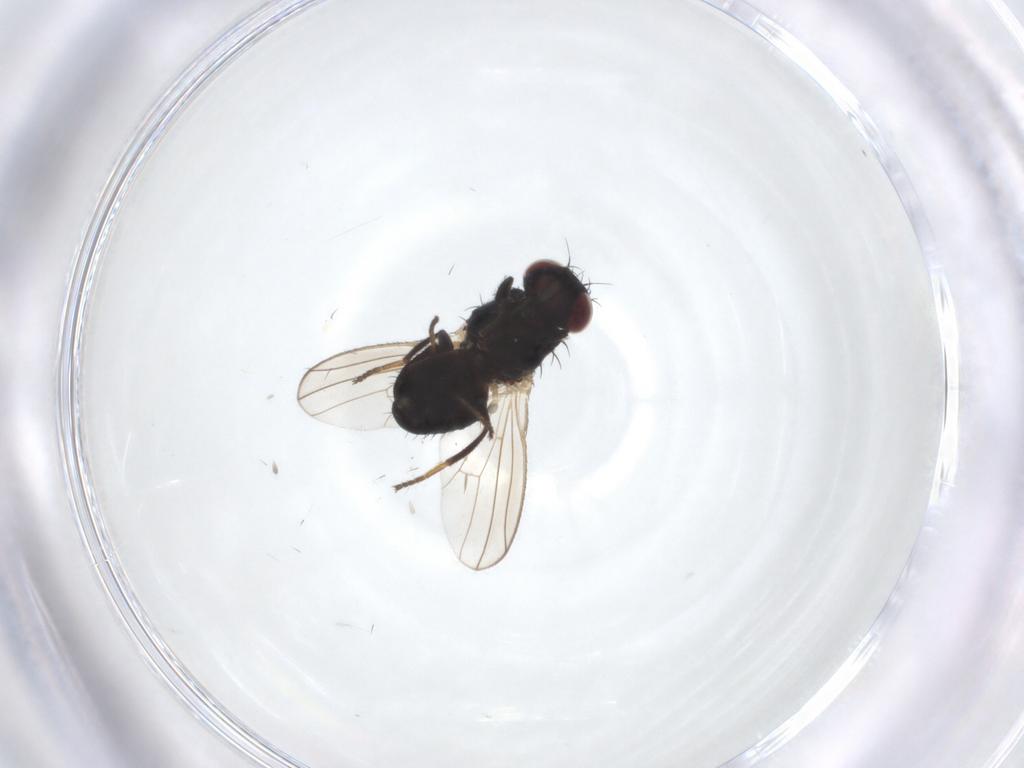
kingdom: Animalia
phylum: Arthropoda
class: Insecta
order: Diptera
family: Carnidae
